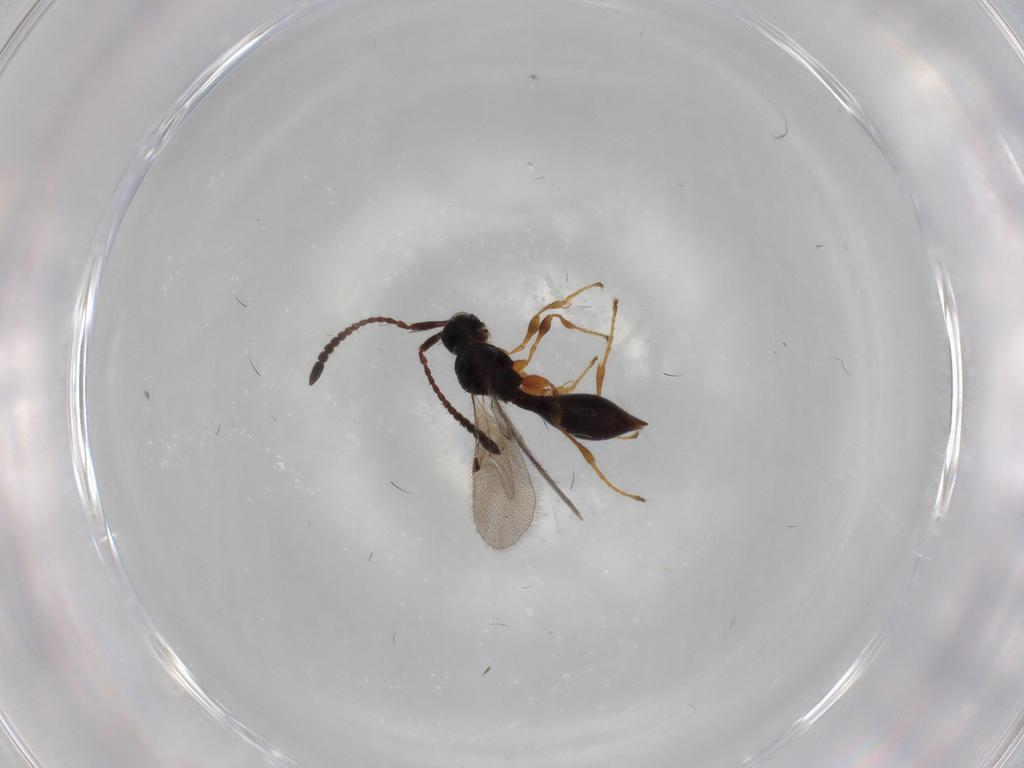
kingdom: Animalia
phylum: Arthropoda
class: Insecta
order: Hymenoptera
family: Diapriidae
